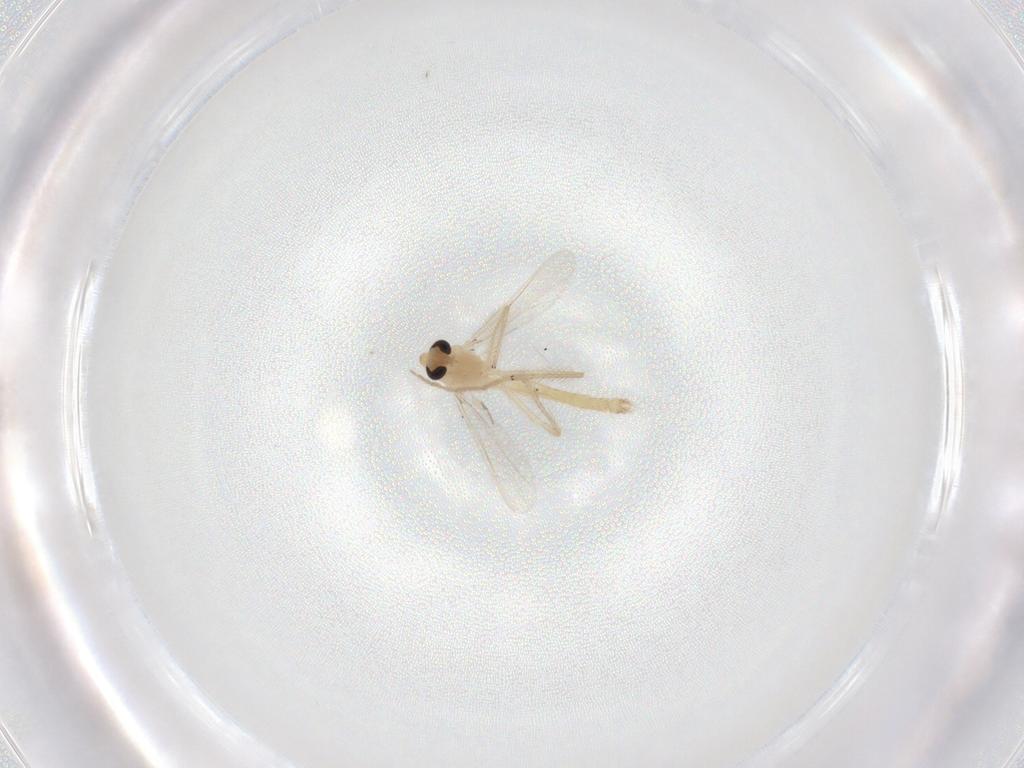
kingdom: Animalia
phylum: Arthropoda
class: Insecta
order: Diptera
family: Chironomidae
